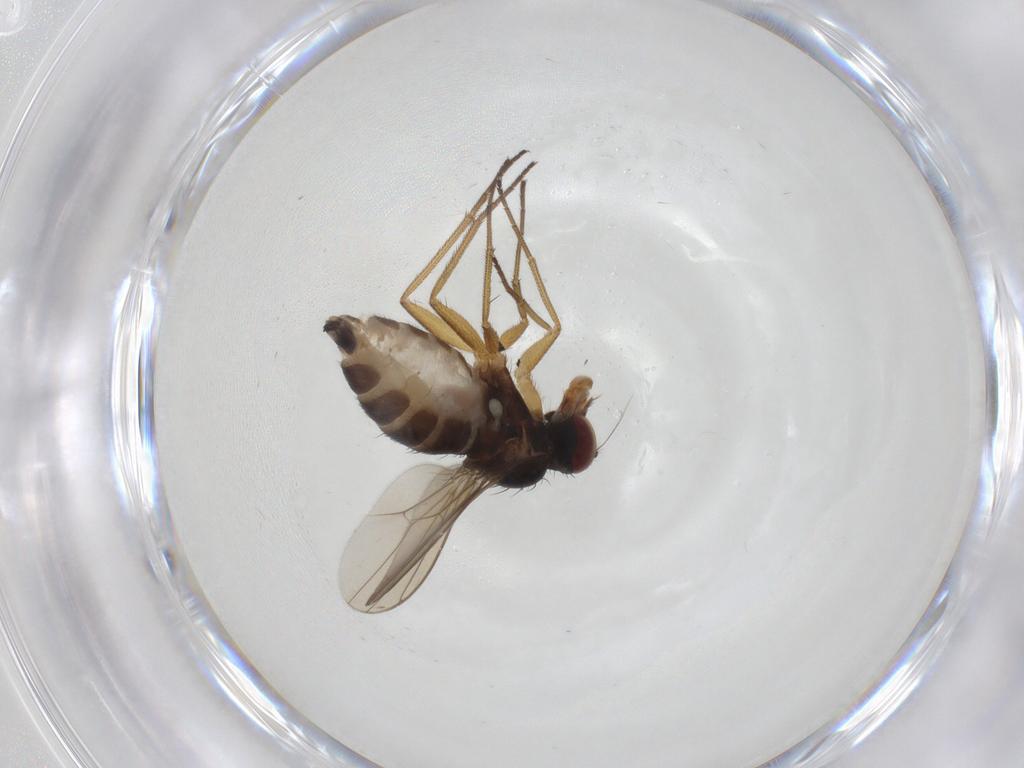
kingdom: Animalia
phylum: Arthropoda
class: Insecta
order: Diptera
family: Dolichopodidae
